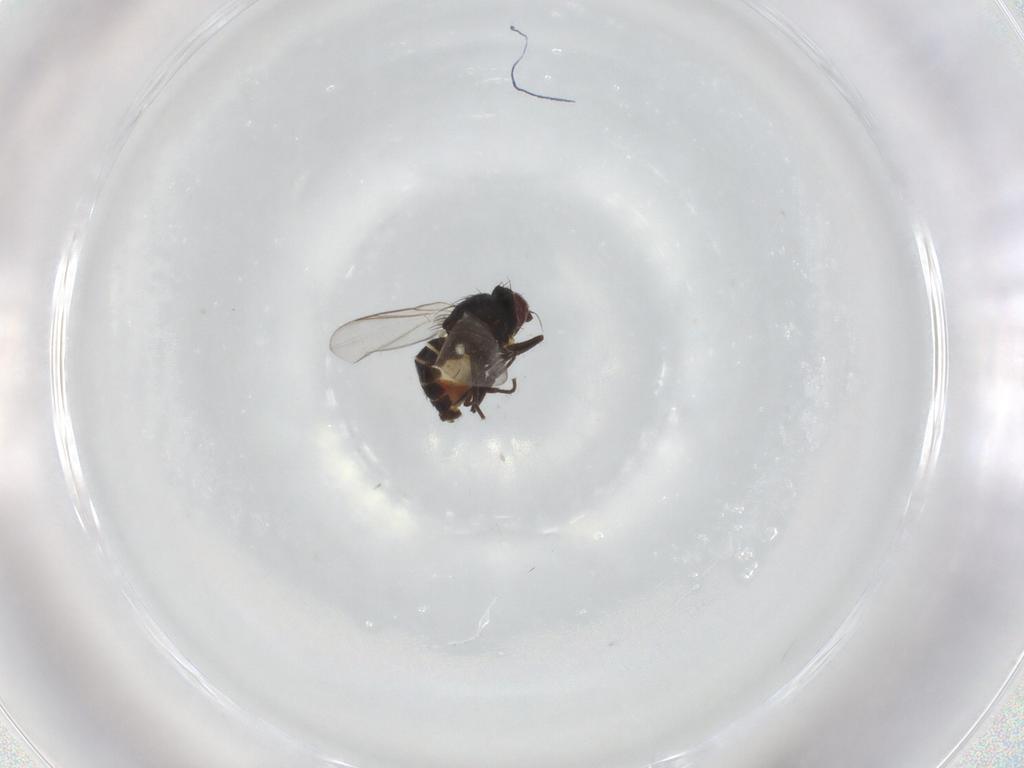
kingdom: Animalia
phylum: Arthropoda
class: Insecta
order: Diptera
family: Agromyzidae
